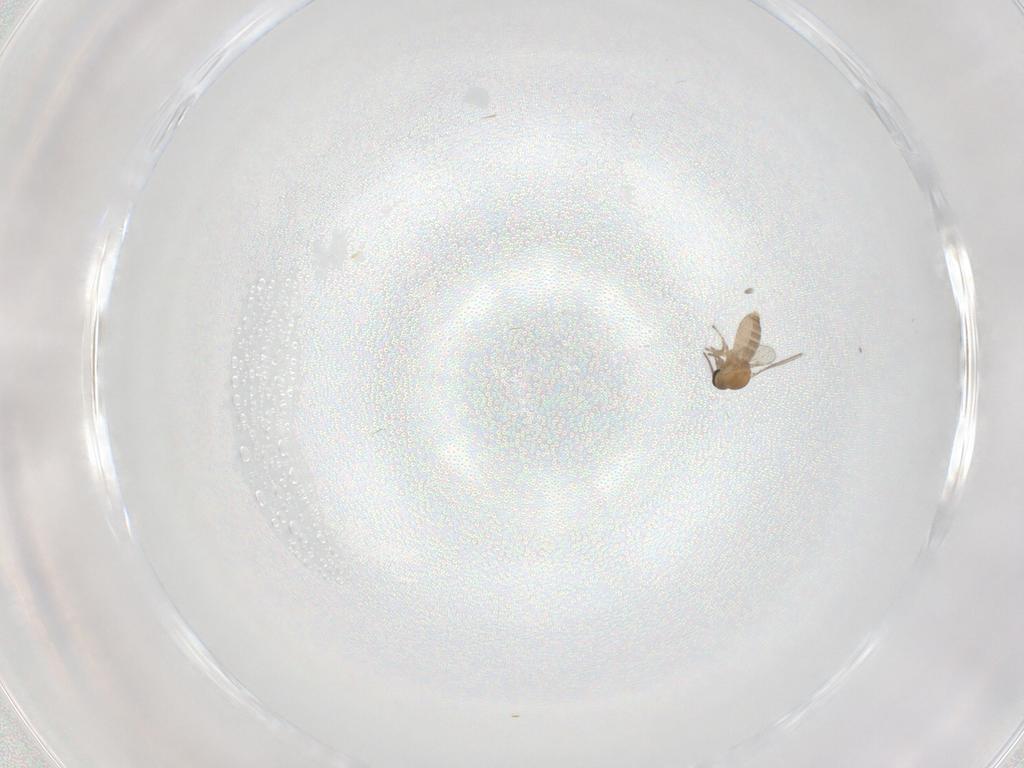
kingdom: Animalia
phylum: Arthropoda
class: Insecta
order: Diptera
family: Ceratopogonidae
